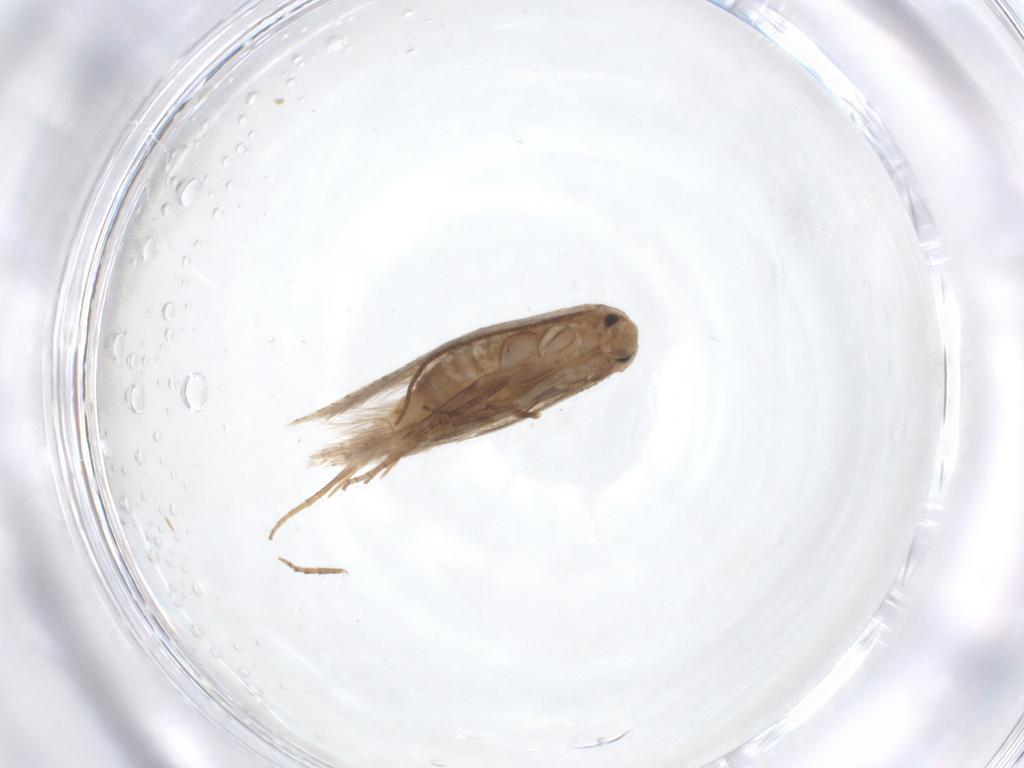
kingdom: Animalia
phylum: Arthropoda
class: Insecta
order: Lepidoptera
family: Bucculatricidae
